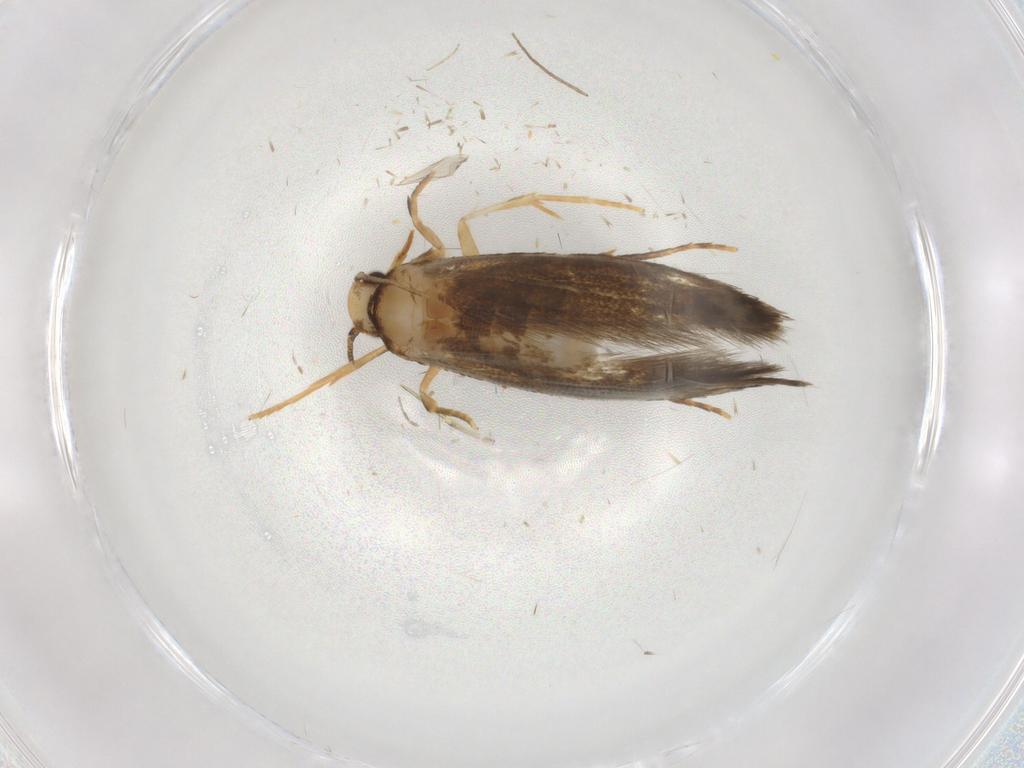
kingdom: Animalia
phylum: Arthropoda
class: Insecta
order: Lepidoptera
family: Tineidae
